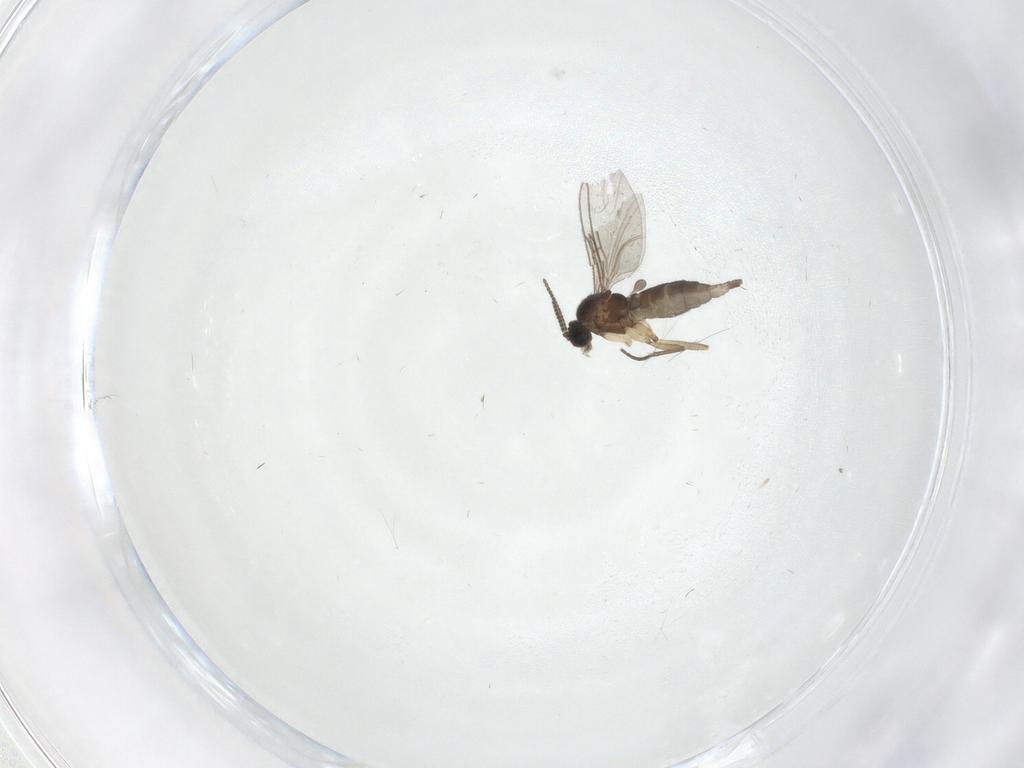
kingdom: Animalia
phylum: Arthropoda
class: Insecta
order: Diptera
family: Sciaridae
